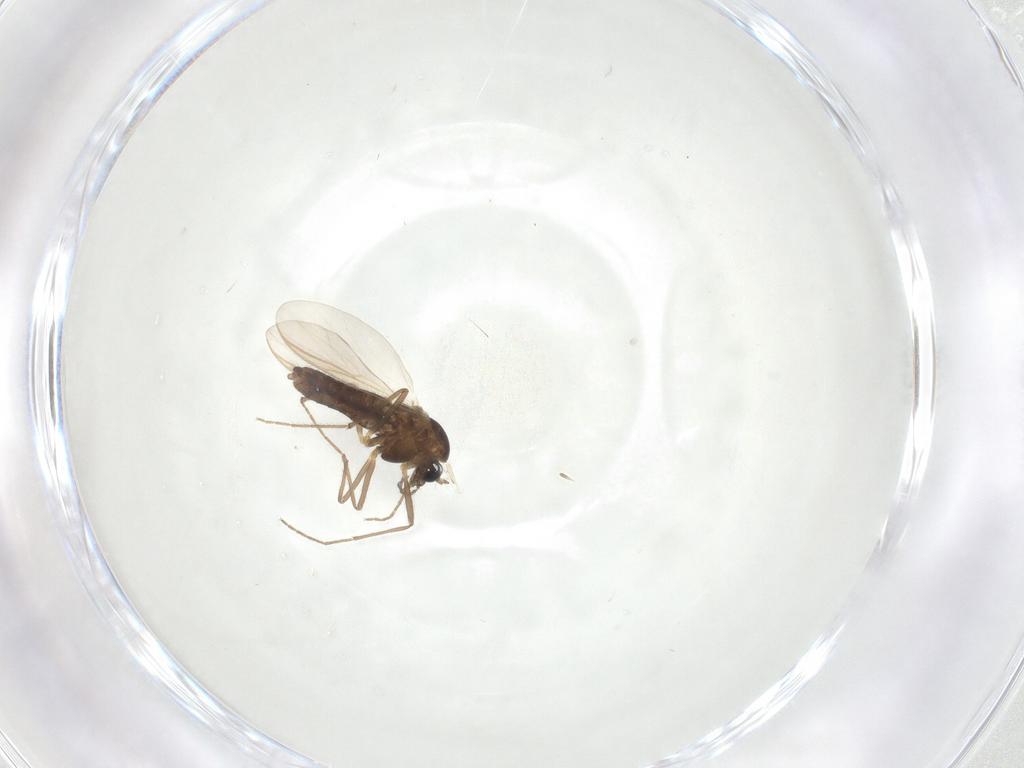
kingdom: Animalia
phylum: Arthropoda
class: Insecta
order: Diptera
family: Chironomidae
